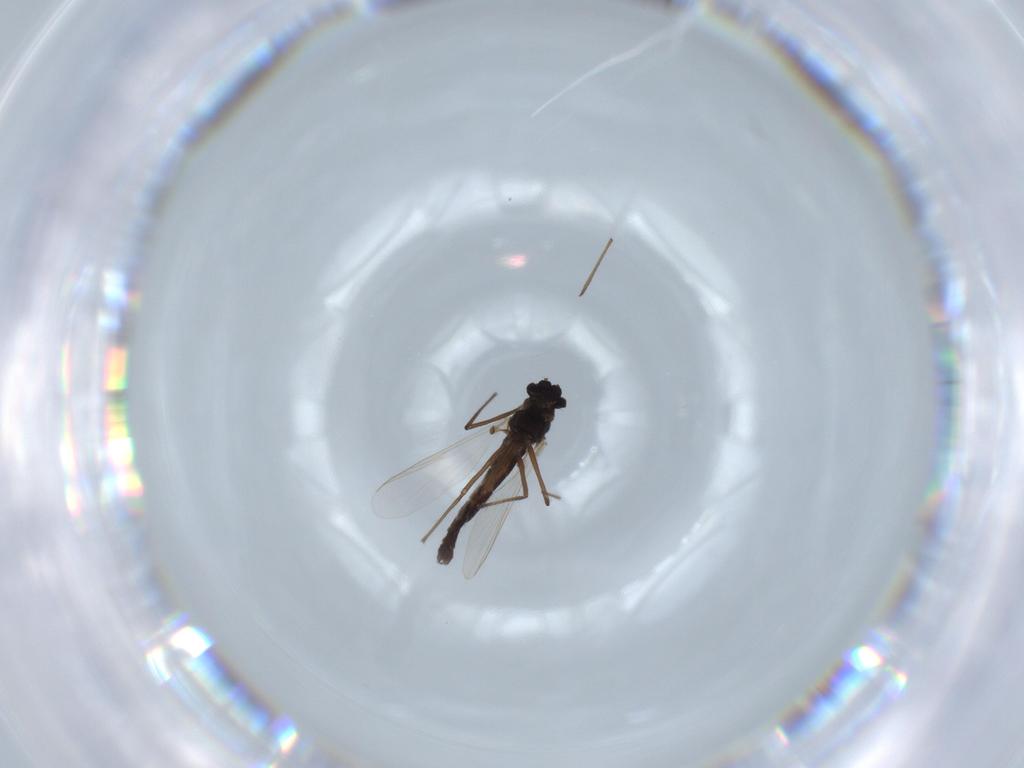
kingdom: Animalia
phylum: Arthropoda
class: Insecta
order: Diptera
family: Chironomidae
